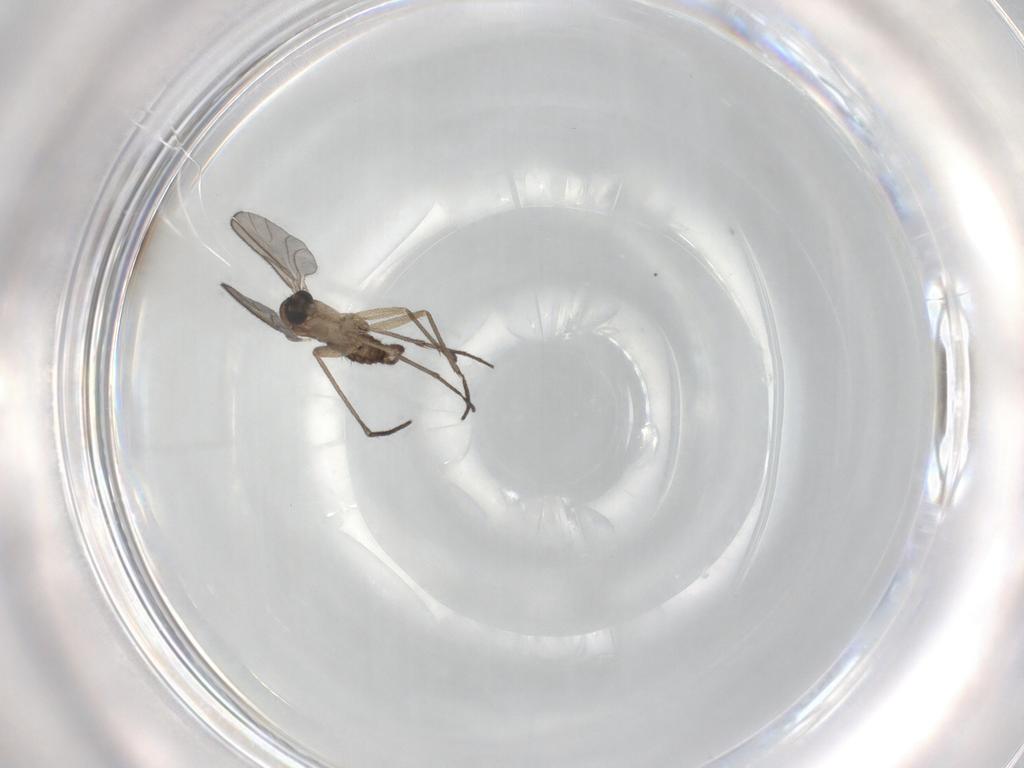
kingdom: Animalia
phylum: Arthropoda
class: Insecta
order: Diptera
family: Sciaridae
